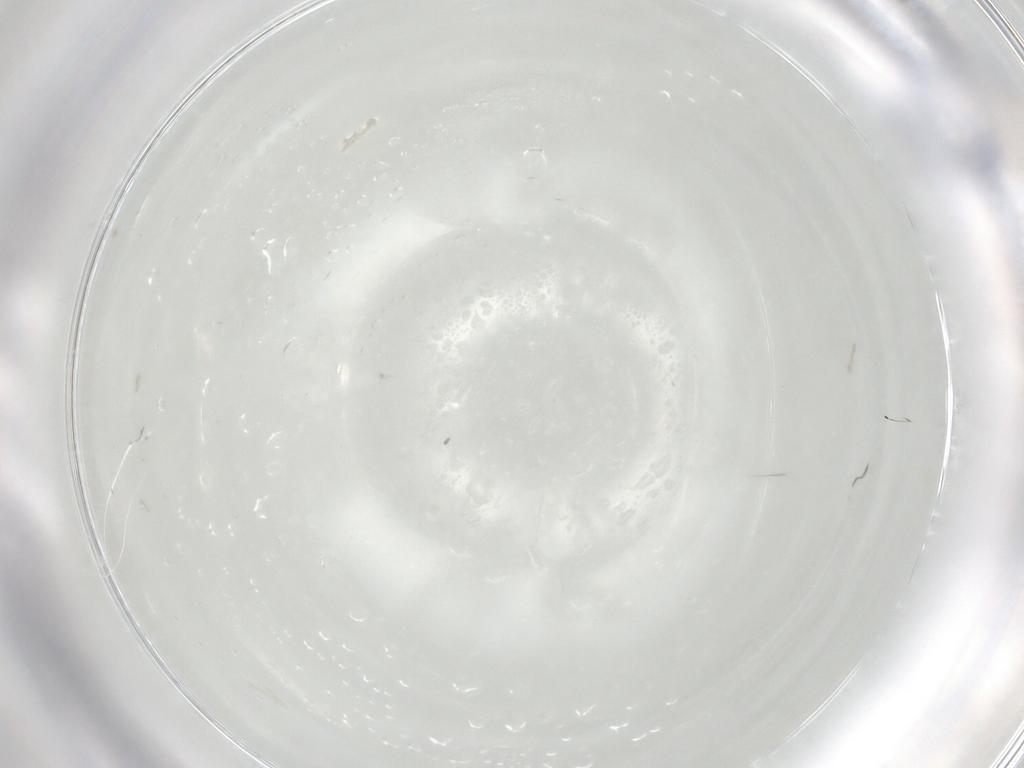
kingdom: Animalia
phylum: Arthropoda
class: Insecta
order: Diptera
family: Tachinidae
